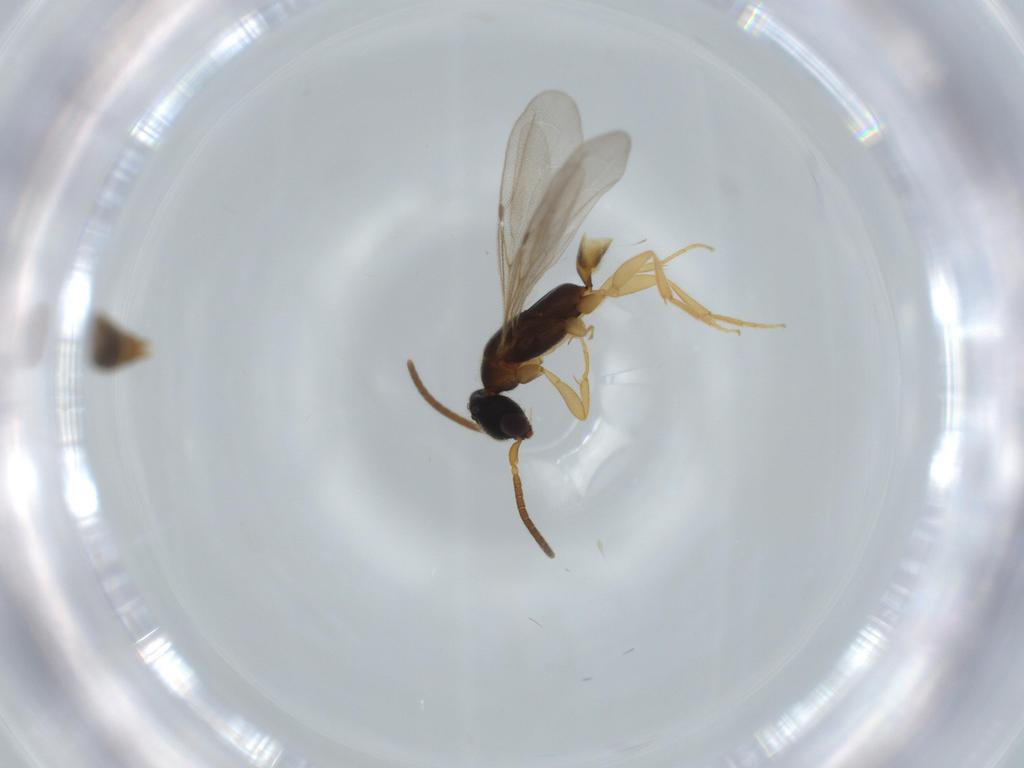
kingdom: Animalia
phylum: Arthropoda
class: Insecta
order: Hymenoptera
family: Bethylidae
